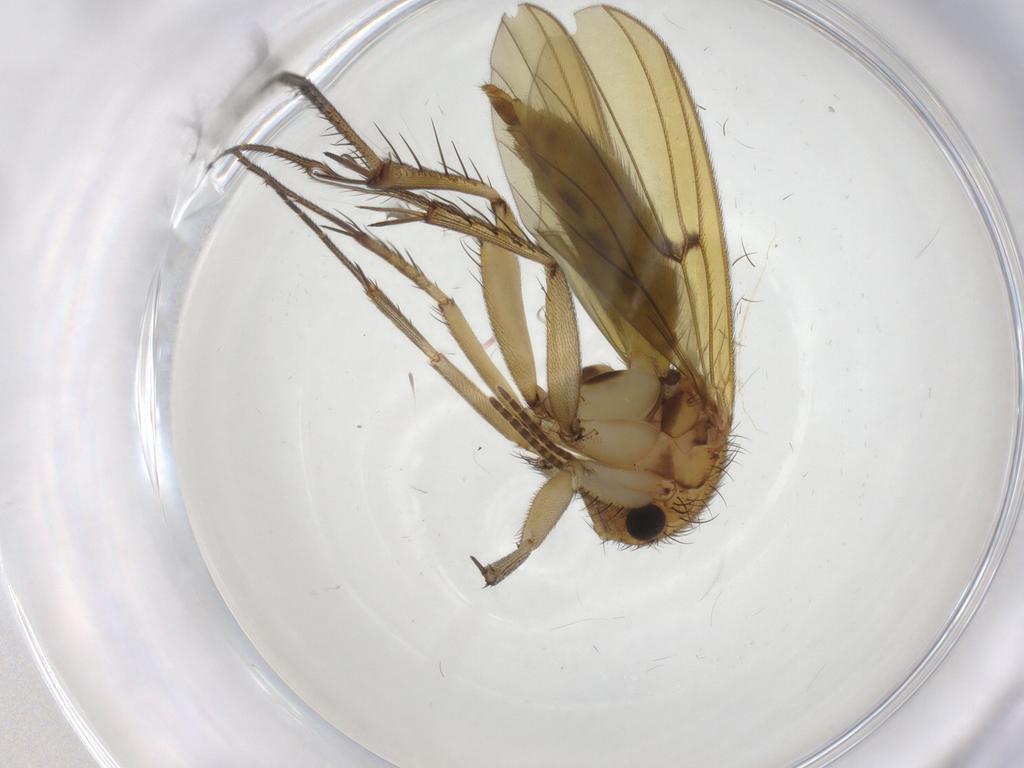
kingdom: Animalia
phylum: Arthropoda
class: Insecta
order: Diptera
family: Mycetophilidae
